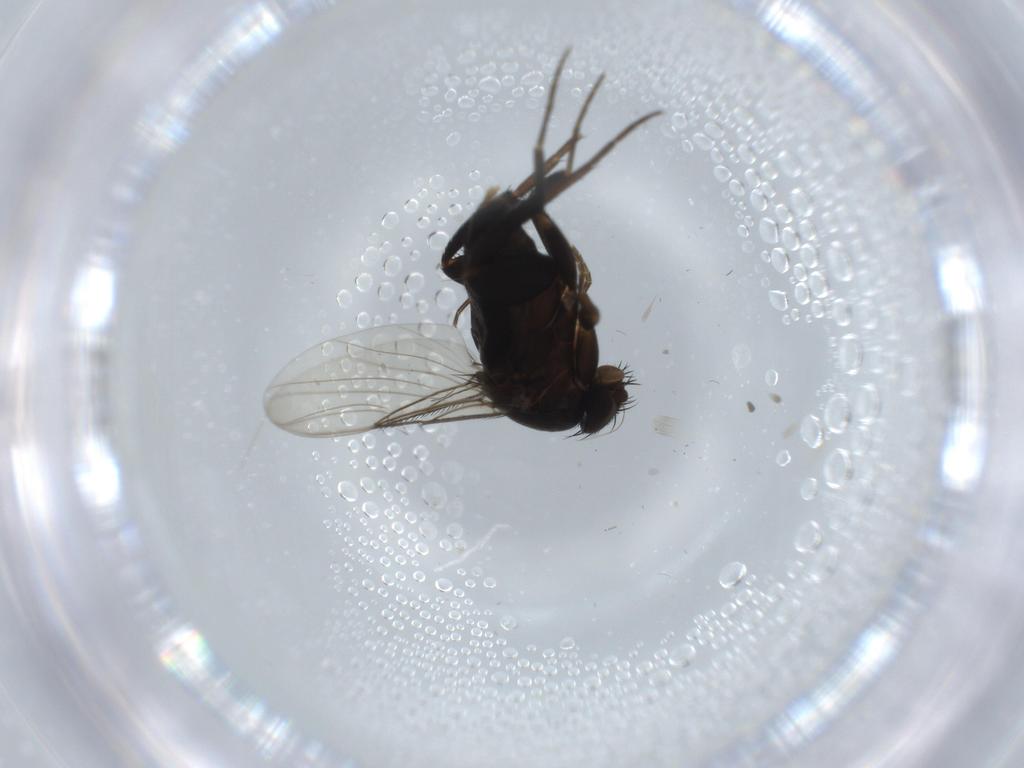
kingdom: Animalia
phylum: Arthropoda
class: Insecta
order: Diptera
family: Phoridae
